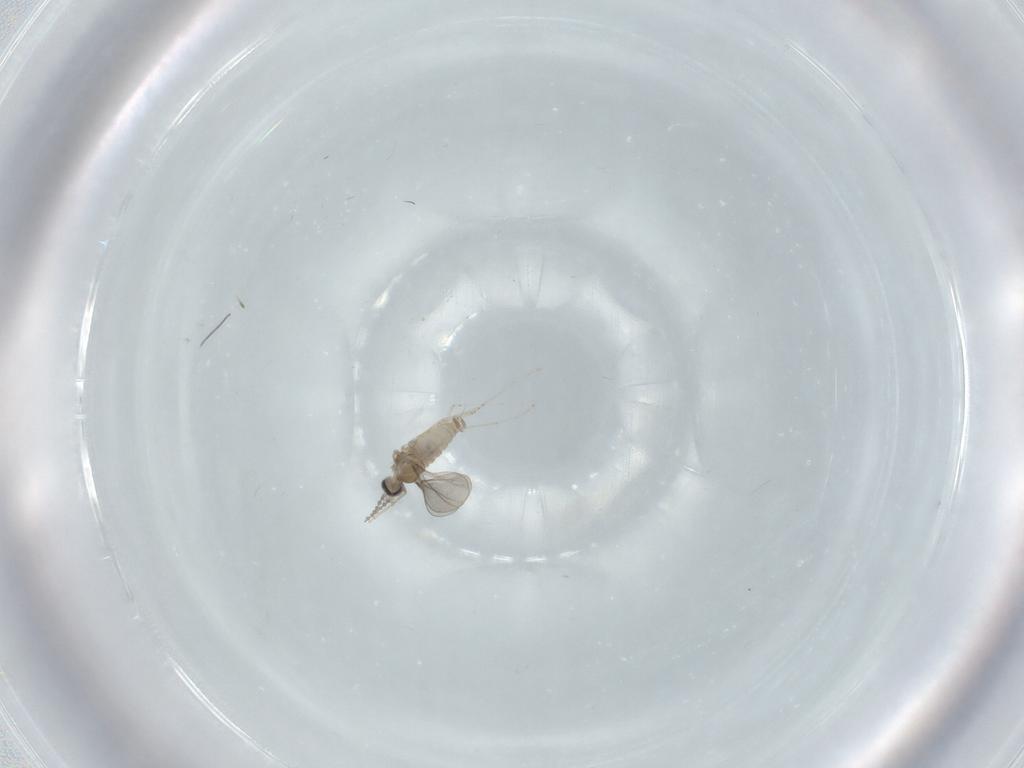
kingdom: Animalia
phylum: Arthropoda
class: Insecta
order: Diptera
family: Cecidomyiidae
